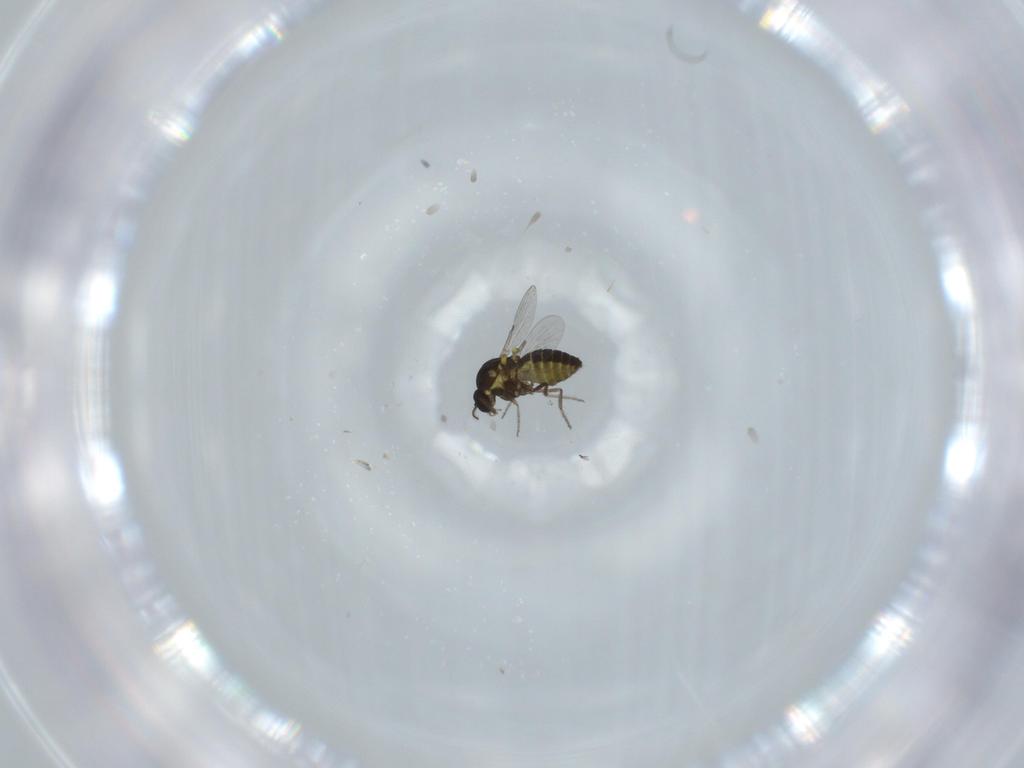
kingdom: Animalia
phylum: Arthropoda
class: Insecta
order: Diptera
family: Ceratopogonidae
